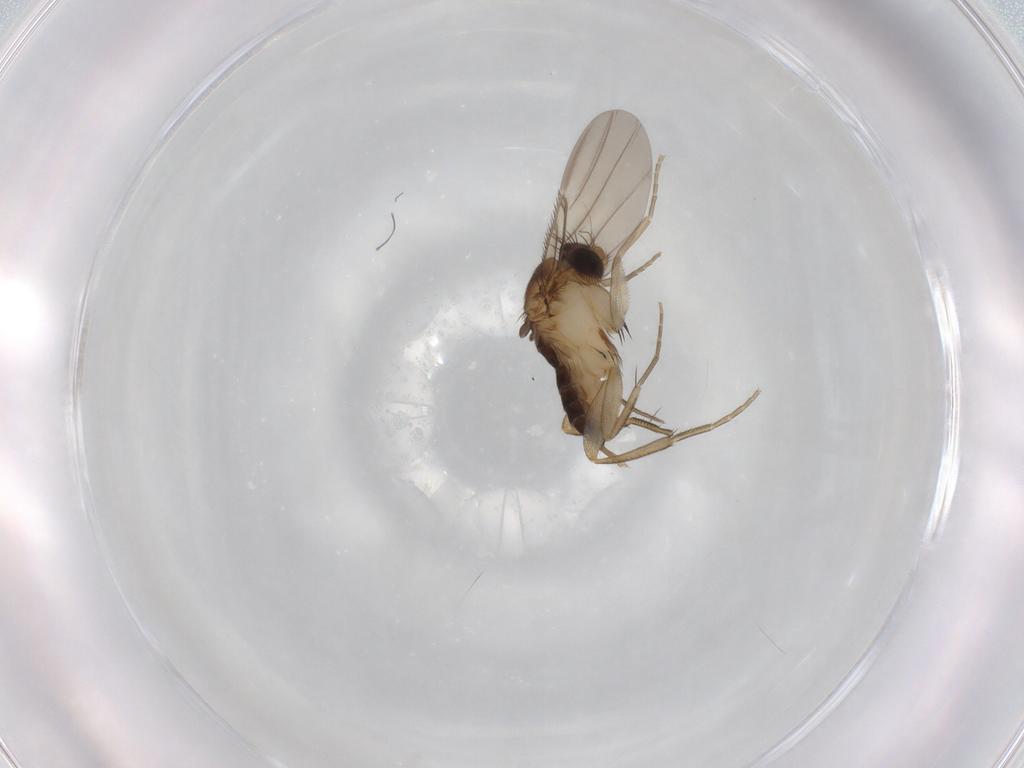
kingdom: Animalia
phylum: Arthropoda
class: Insecta
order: Diptera
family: Phoridae
